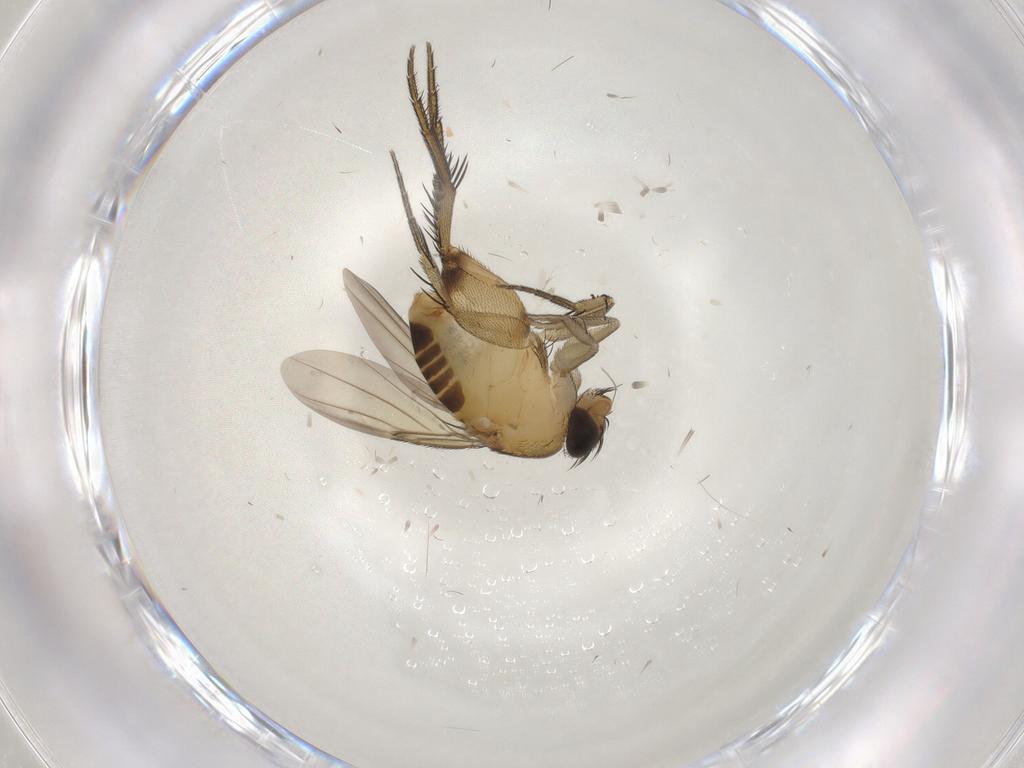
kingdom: Animalia
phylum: Arthropoda
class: Insecta
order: Diptera
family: Phoridae
